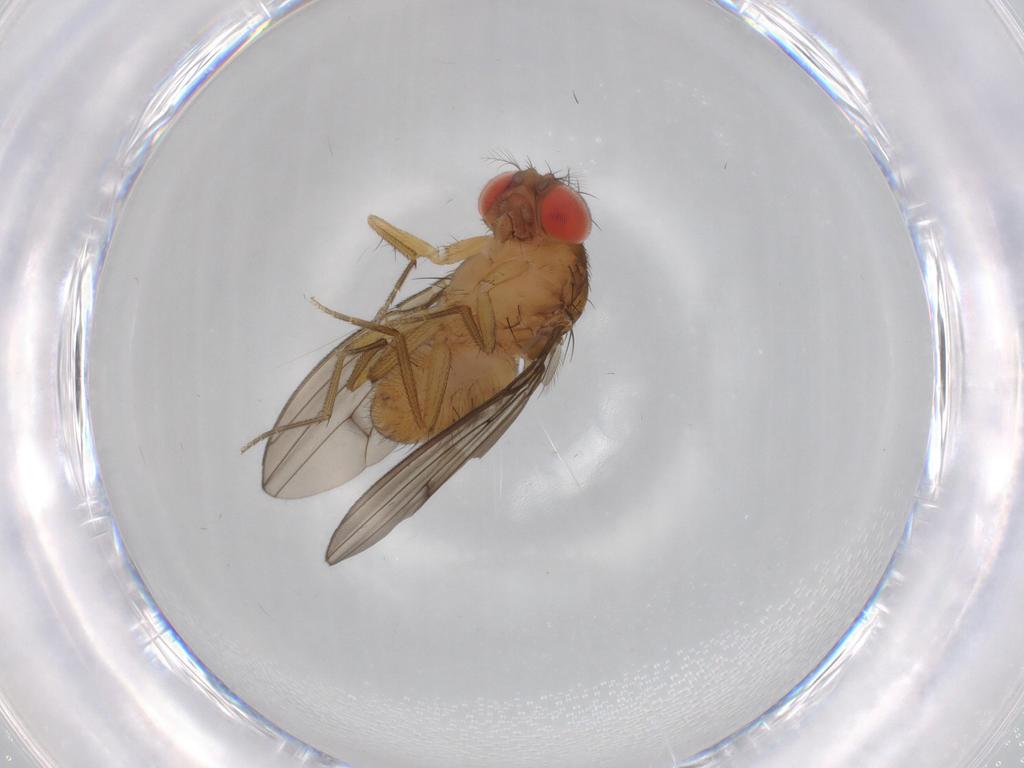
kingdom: Animalia
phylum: Arthropoda
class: Insecta
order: Diptera
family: Drosophilidae
